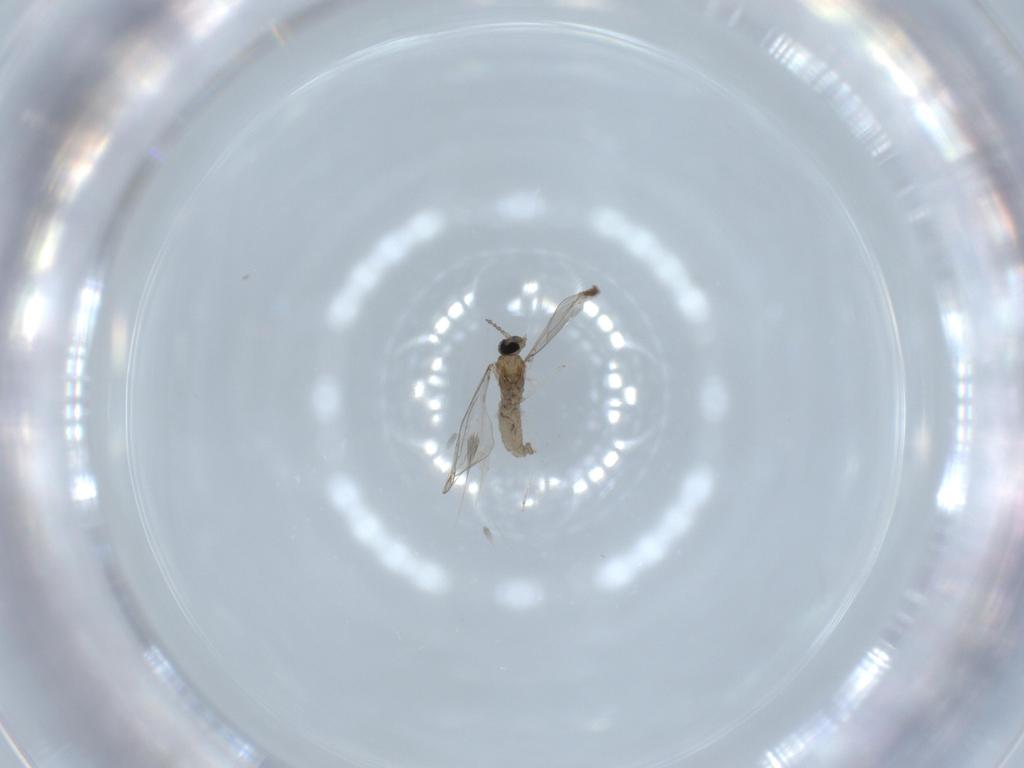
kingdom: Animalia
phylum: Arthropoda
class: Insecta
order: Diptera
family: Cecidomyiidae
